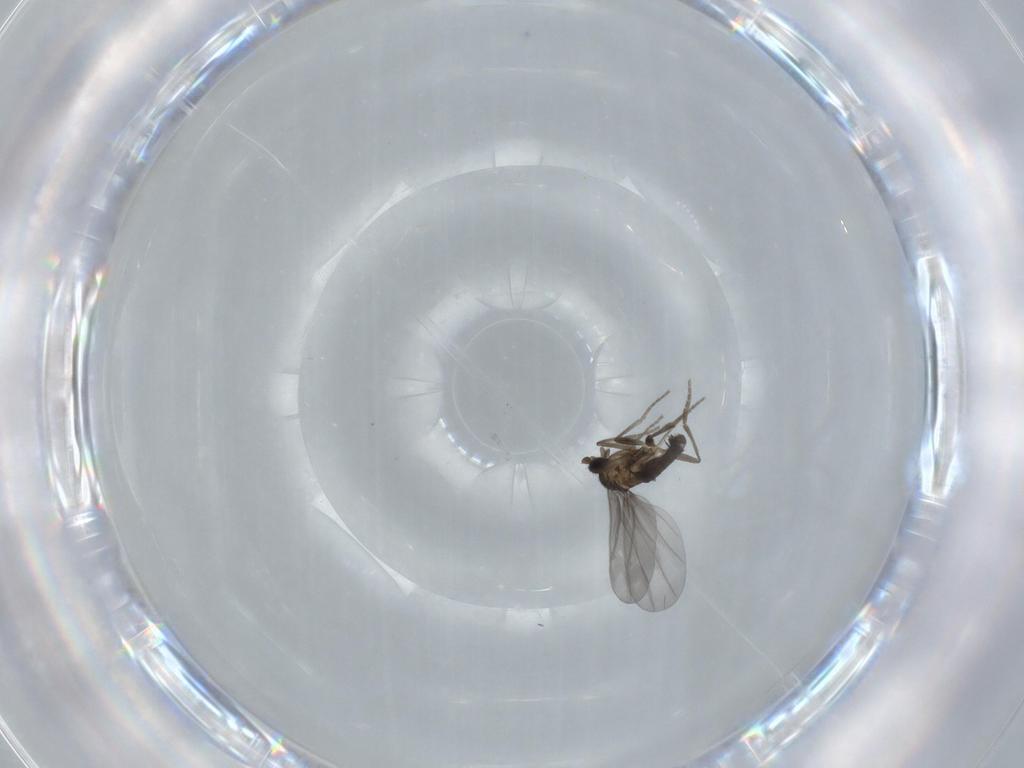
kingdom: Animalia
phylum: Arthropoda
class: Insecta
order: Diptera
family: Phoridae
